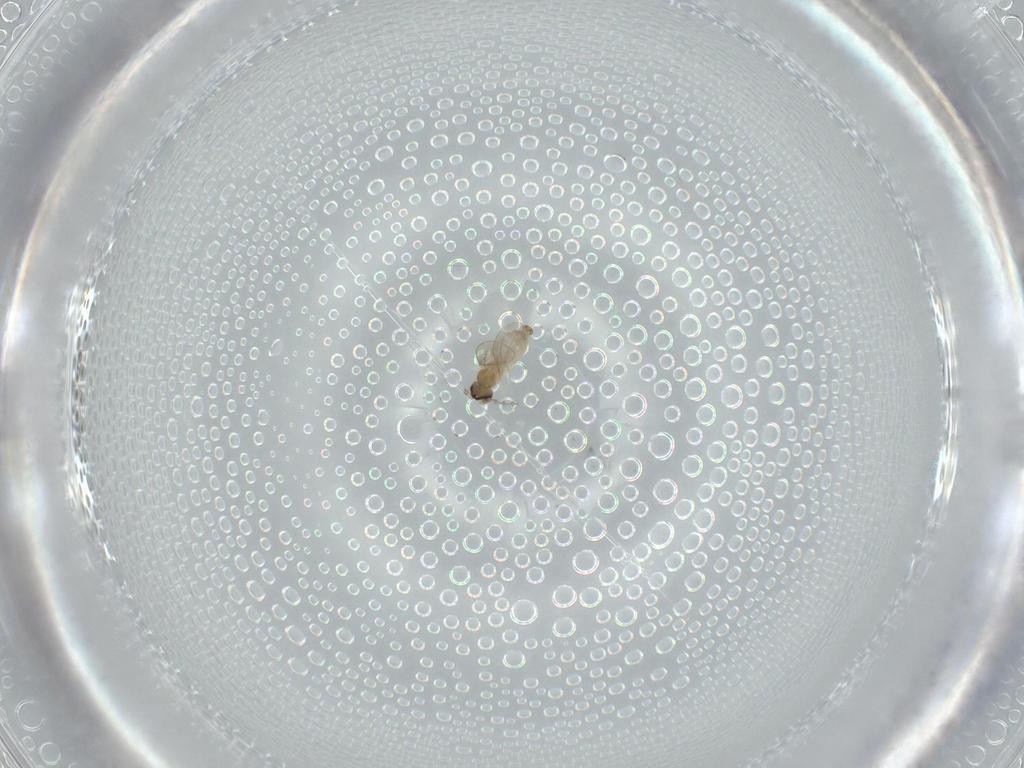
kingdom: Animalia
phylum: Arthropoda
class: Insecta
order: Diptera
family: Cecidomyiidae
